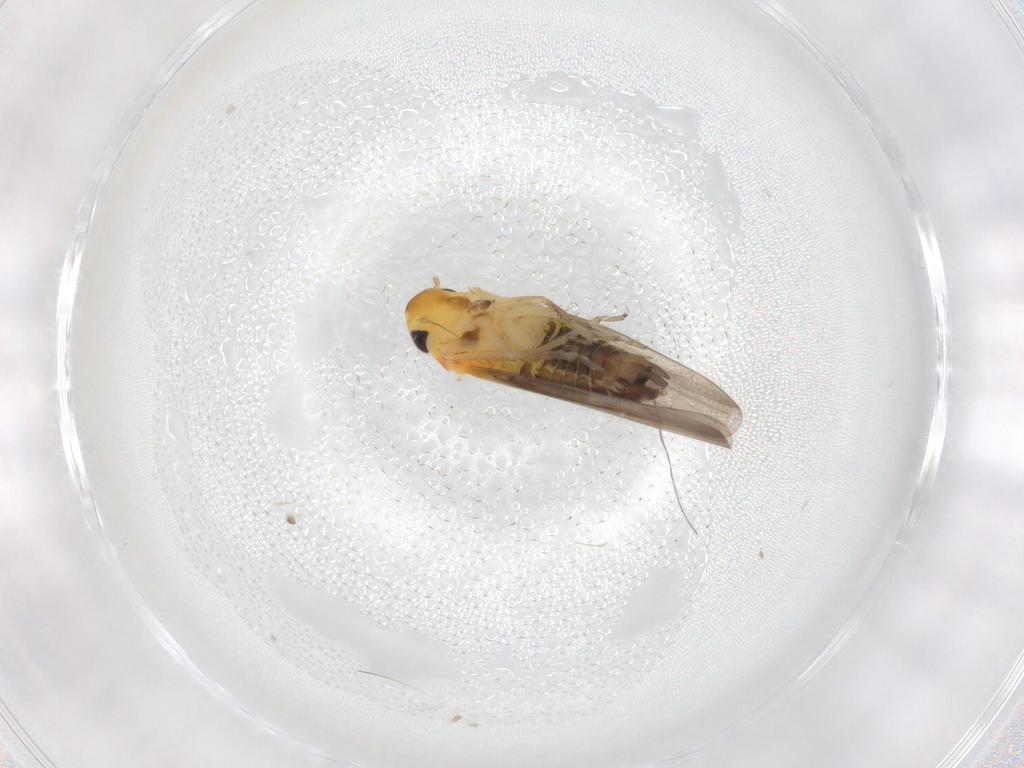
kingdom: Animalia
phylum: Arthropoda
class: Insecta
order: Hemiptera
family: Cicadellidae
